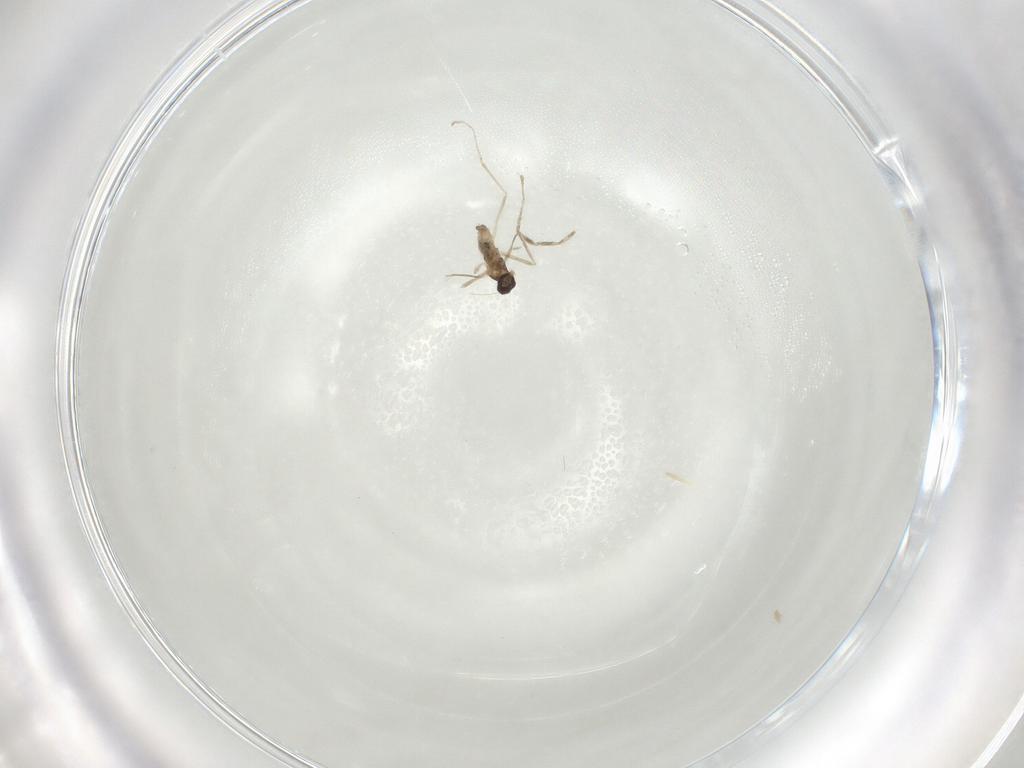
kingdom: Animalia
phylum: Arthropoda
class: Insecta
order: Diptera
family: Cecidomyiidae
